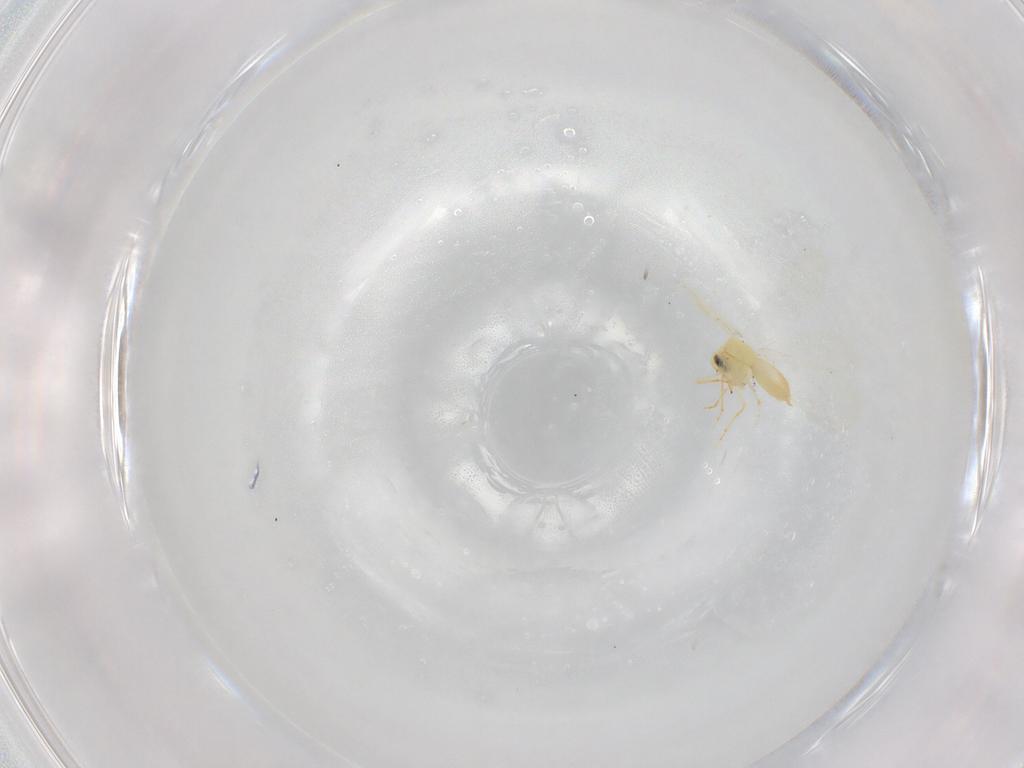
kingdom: Animalia
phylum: Arthropoda
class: Insecta
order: Hemiptera
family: Aleyrodidae
